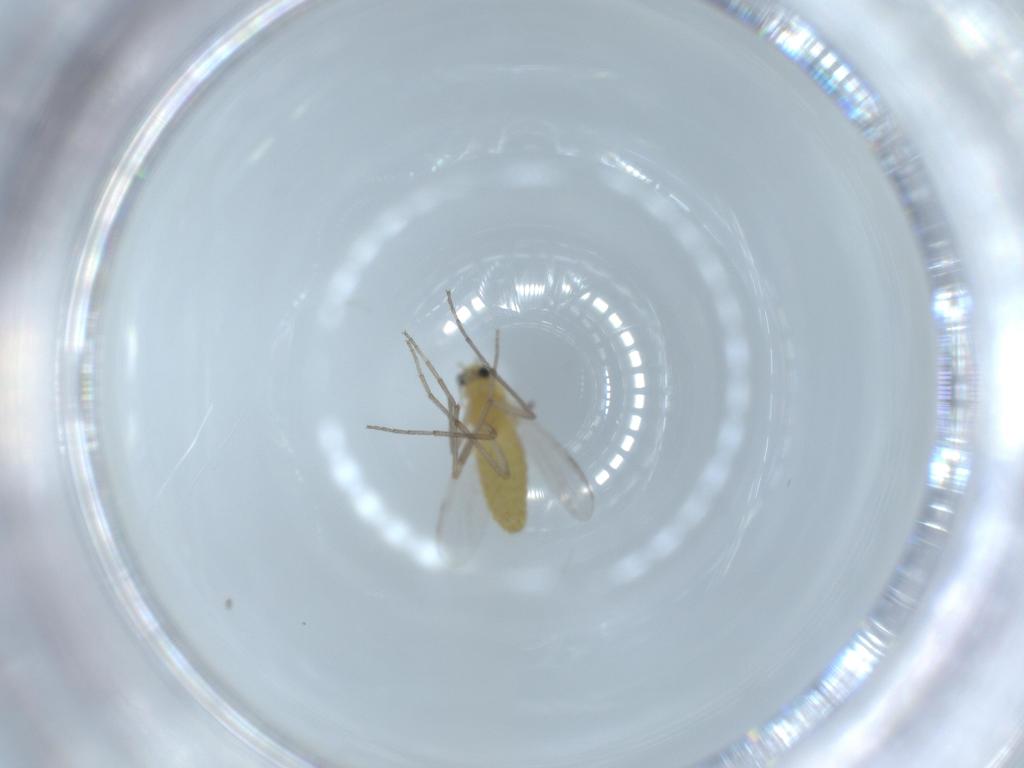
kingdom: Animalia
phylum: Arthropoda
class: Insecta
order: Diptera
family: Chironomidae
